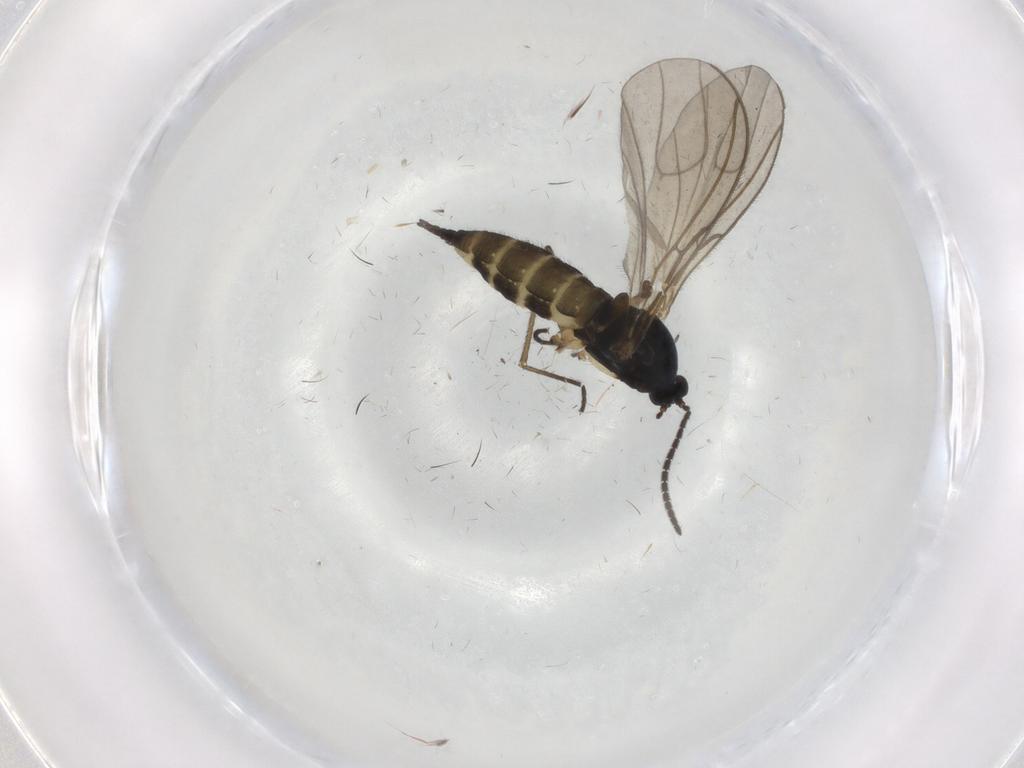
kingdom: Animalia
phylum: Arthropoda
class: Insecta
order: Diptera
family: Sciaridae
